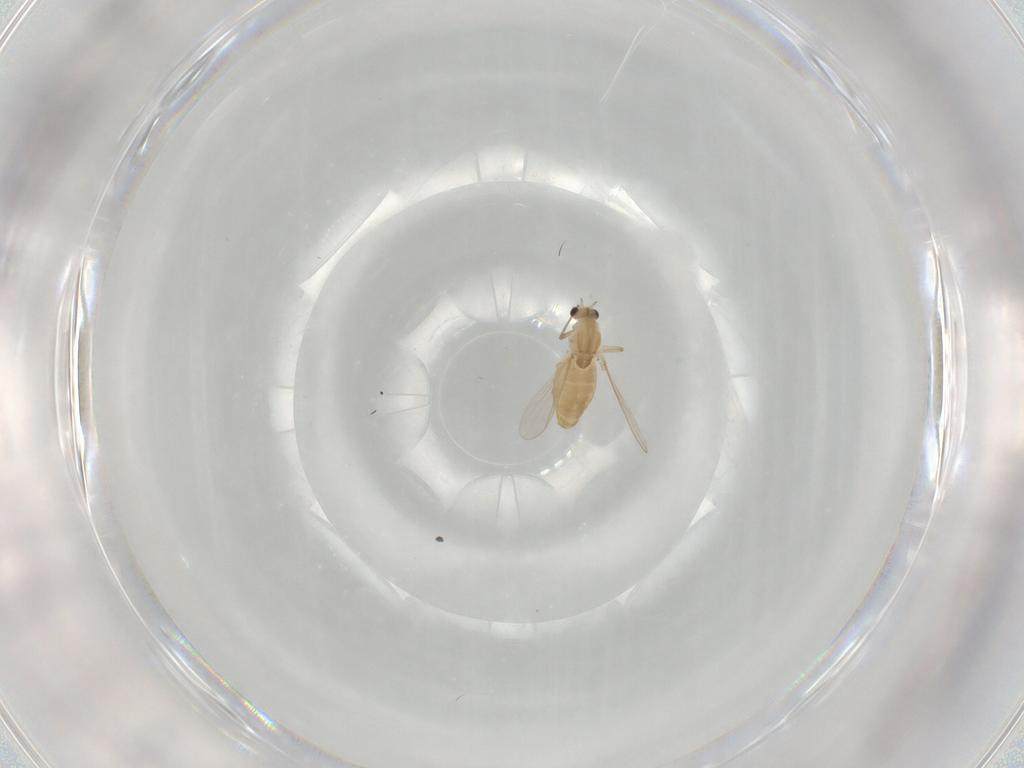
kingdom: Animalia
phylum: Arthropoda
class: Insecta
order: Diptera
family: Chironomidae
